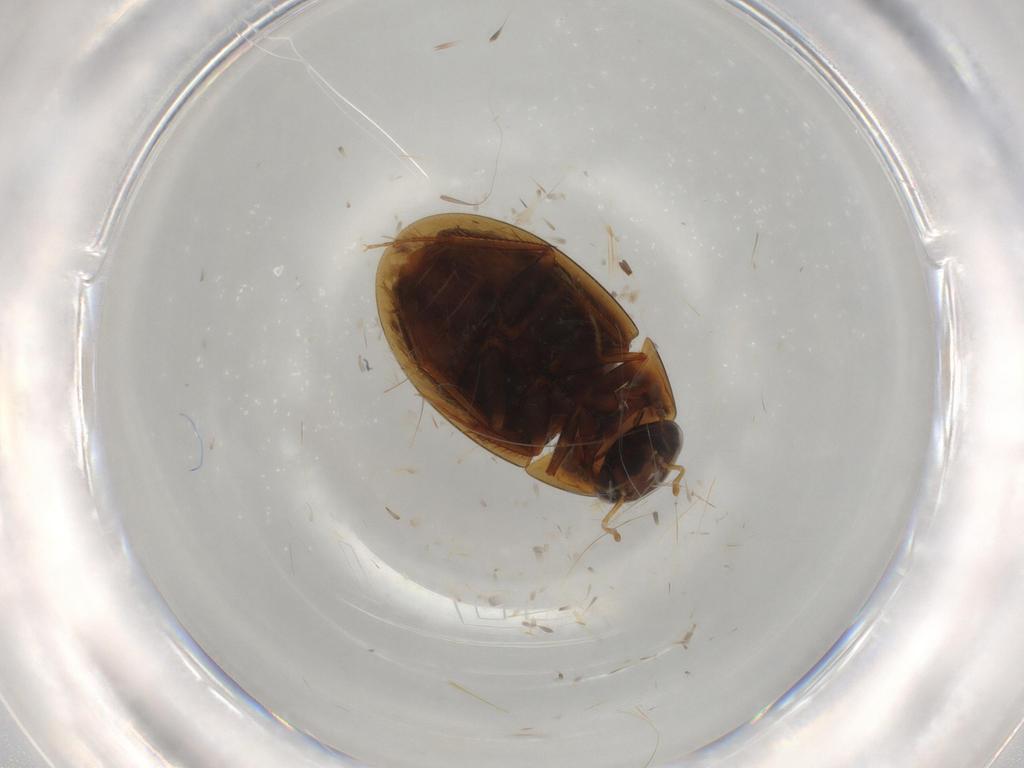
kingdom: Animalia
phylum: Arthropoda
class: Insecta
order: Coleoptera
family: Hydrophilidae
